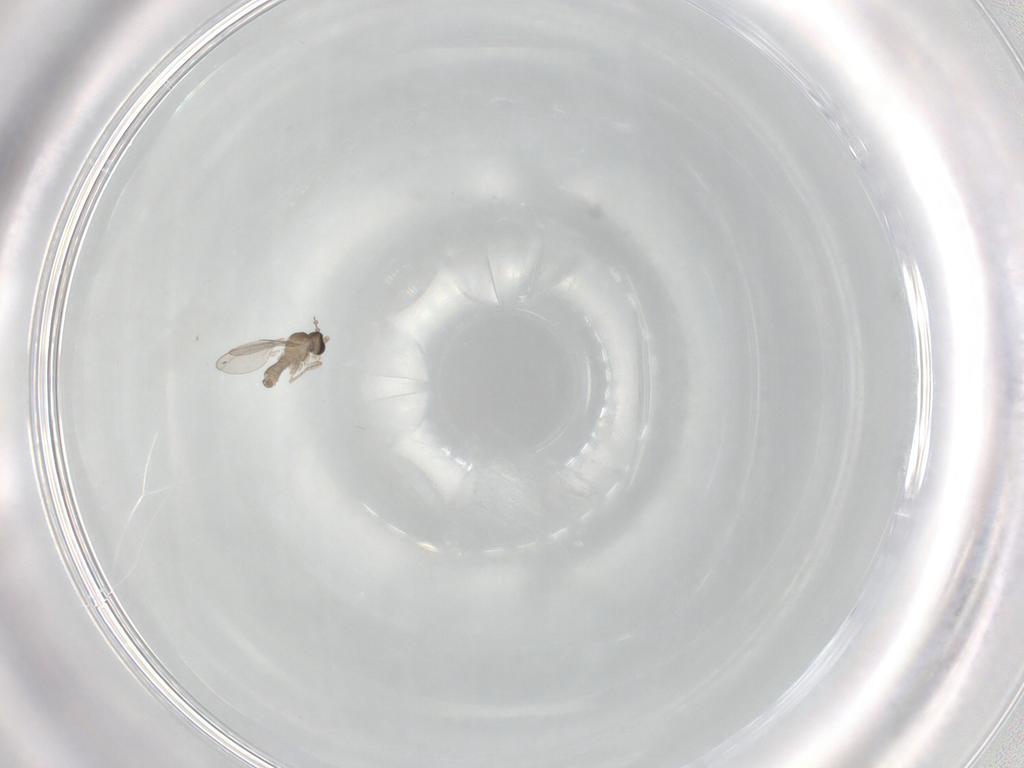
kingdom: Animalia
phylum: Arthropoda
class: Insecta
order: Diptera
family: Cecidomyiidae
